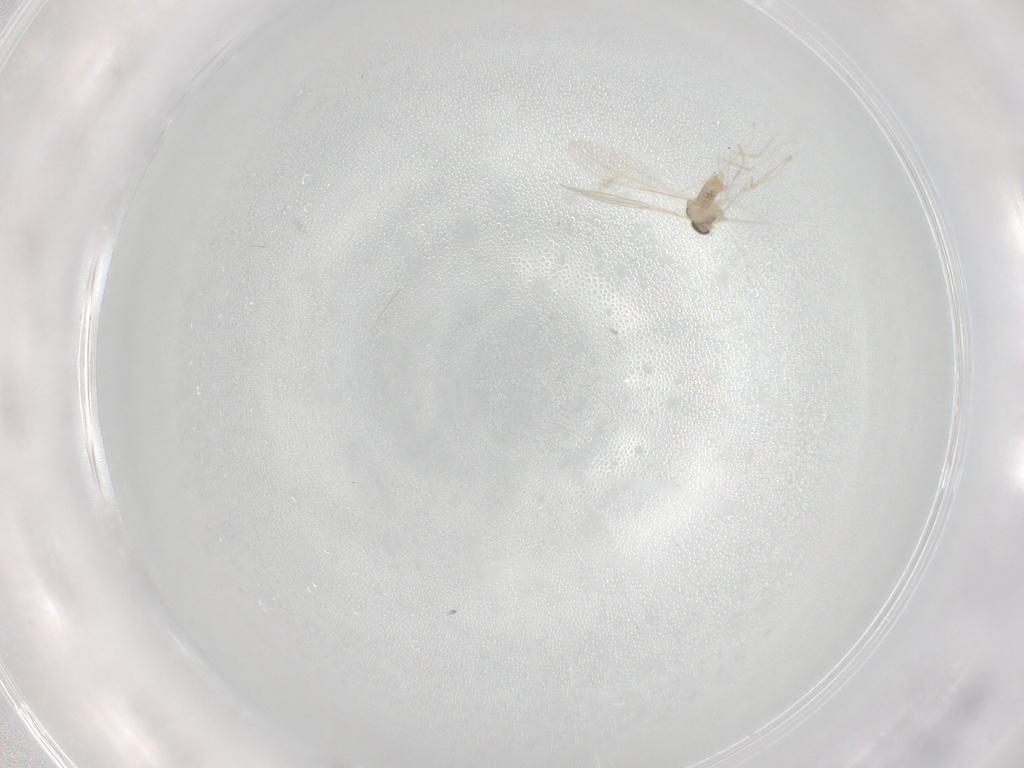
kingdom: Animalia
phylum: Arthropoda
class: Insecta
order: Diptera
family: Cecidomyiidae
